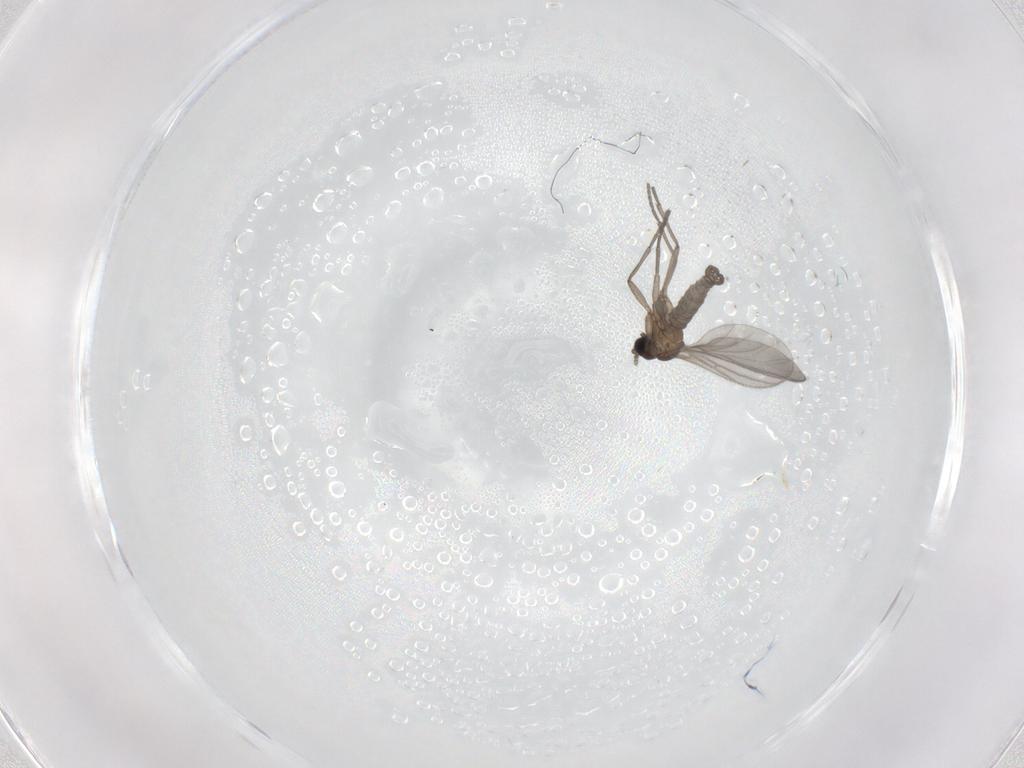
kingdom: Animalia
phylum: Arthropoda
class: Insecta
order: Diptera
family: Sciaridae
